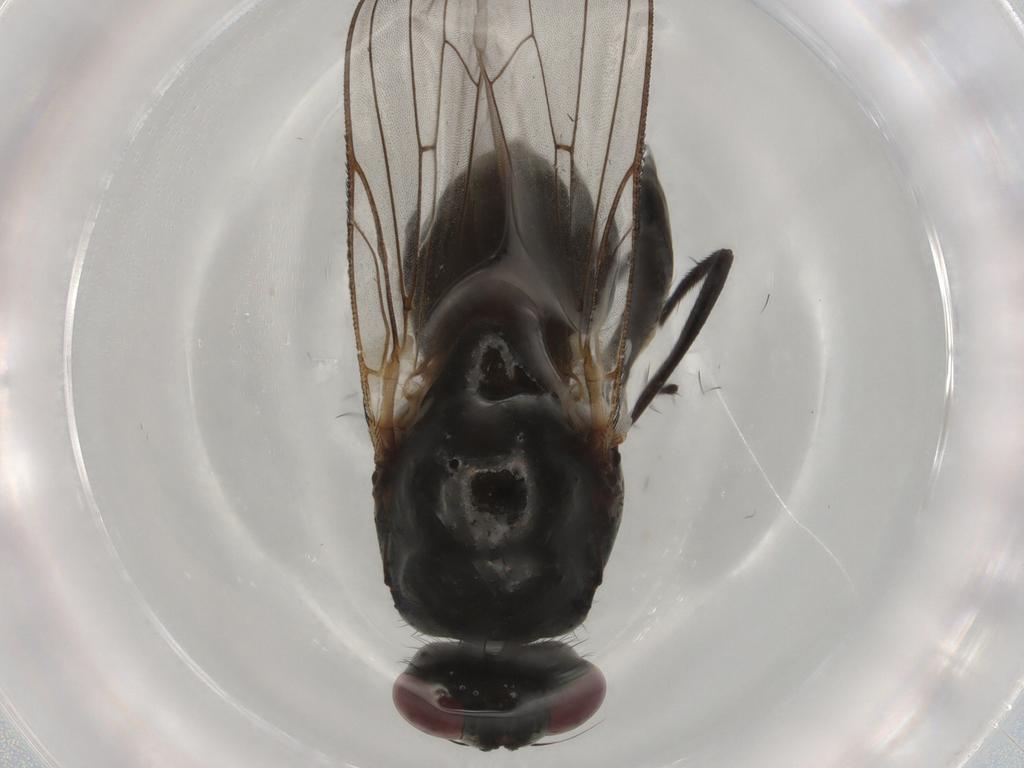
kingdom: Animalia
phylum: Arthropoda
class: Insecta
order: Diptera
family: Anthomyiidae
